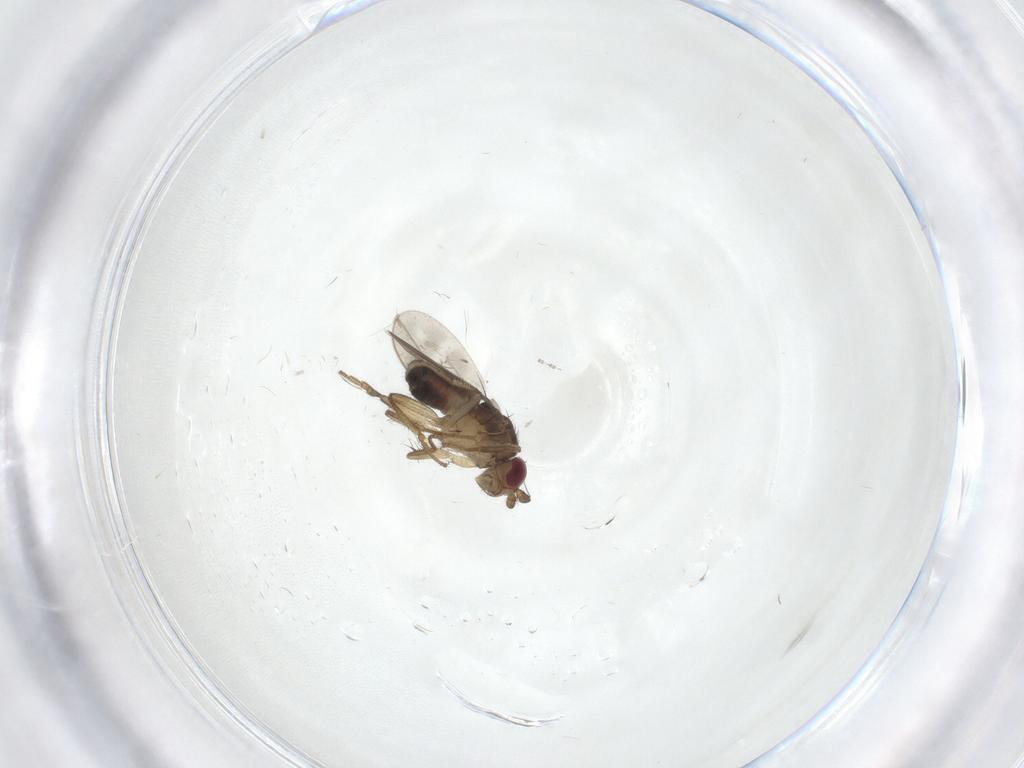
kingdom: Animalia
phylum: Arthropoda
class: Insecta
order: Diptera
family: Sphaeroceridae
